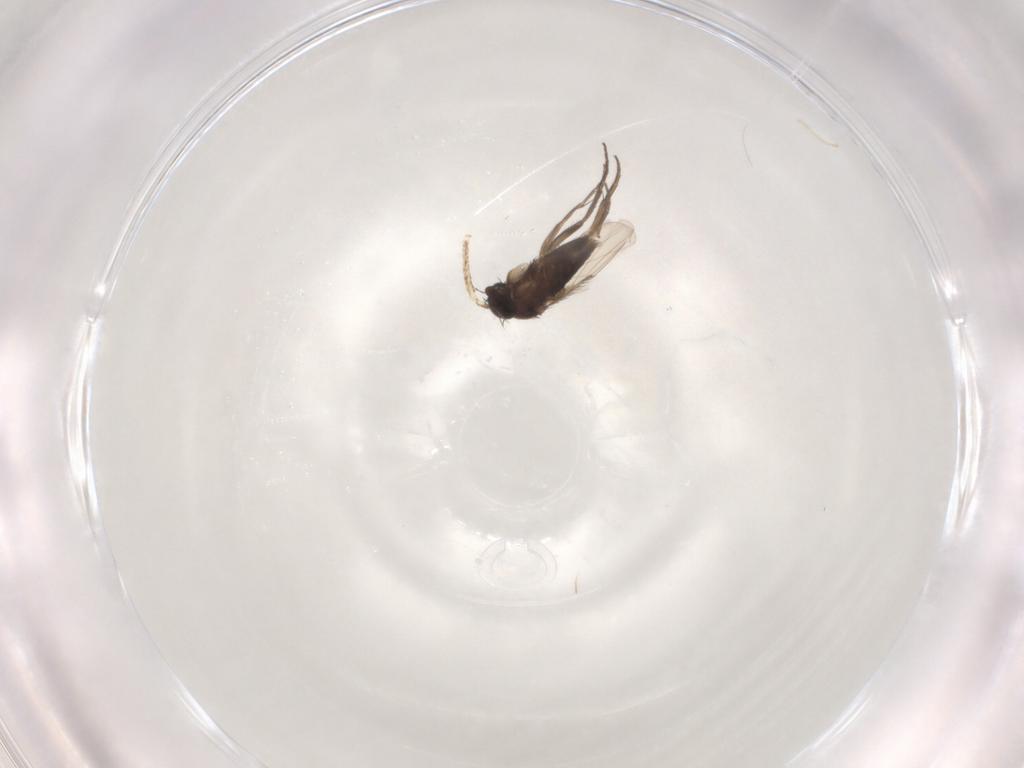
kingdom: Animalia
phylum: Arthropoda
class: Insecta
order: Diptera
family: Phoridae
